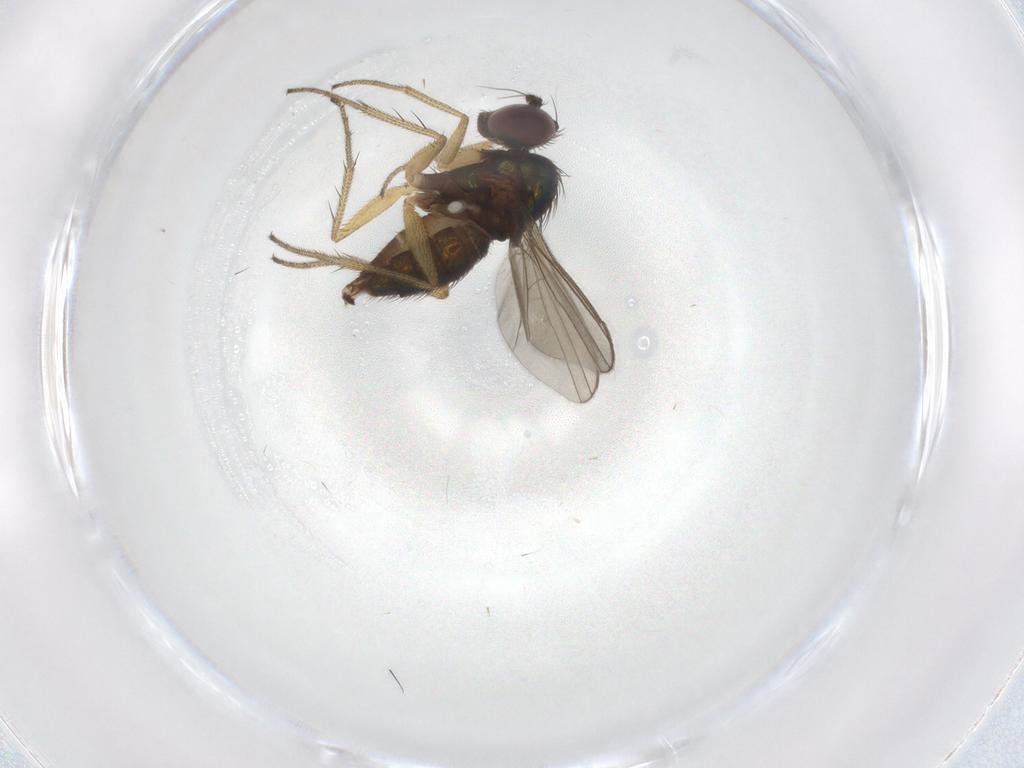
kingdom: Animalia
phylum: Arthropoda
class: Insecta
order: Diptera
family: Dolichopodidae
